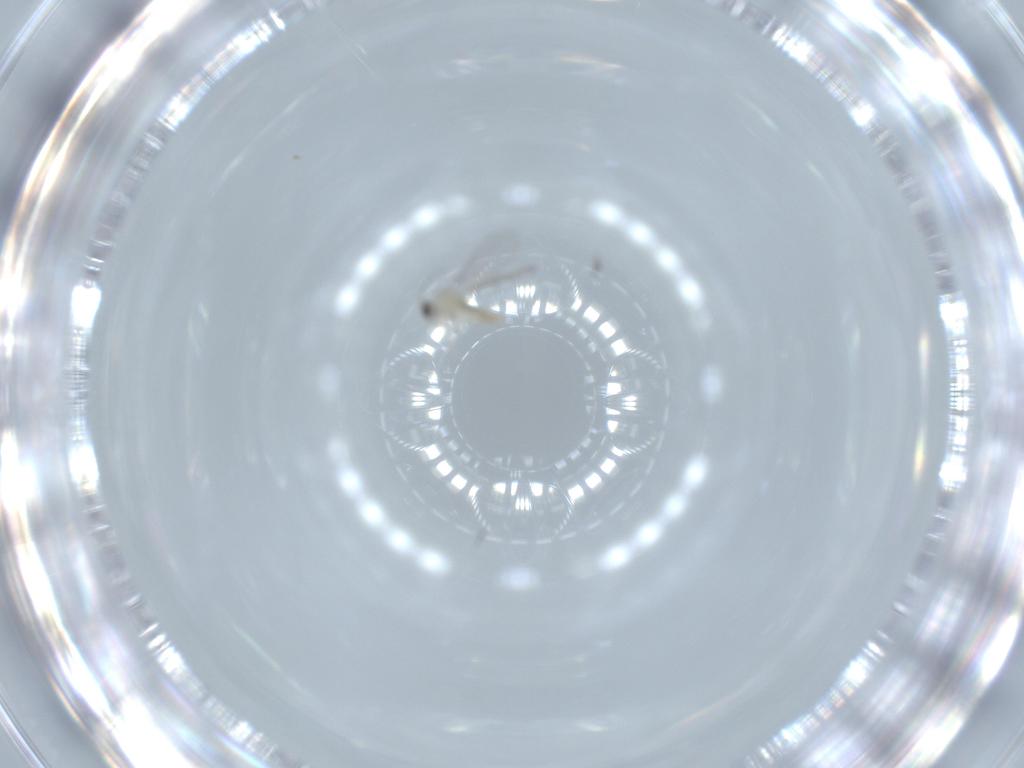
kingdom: Animalia
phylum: Arthropoda
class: Insecta
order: Diptera
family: Cecidomyiidae
